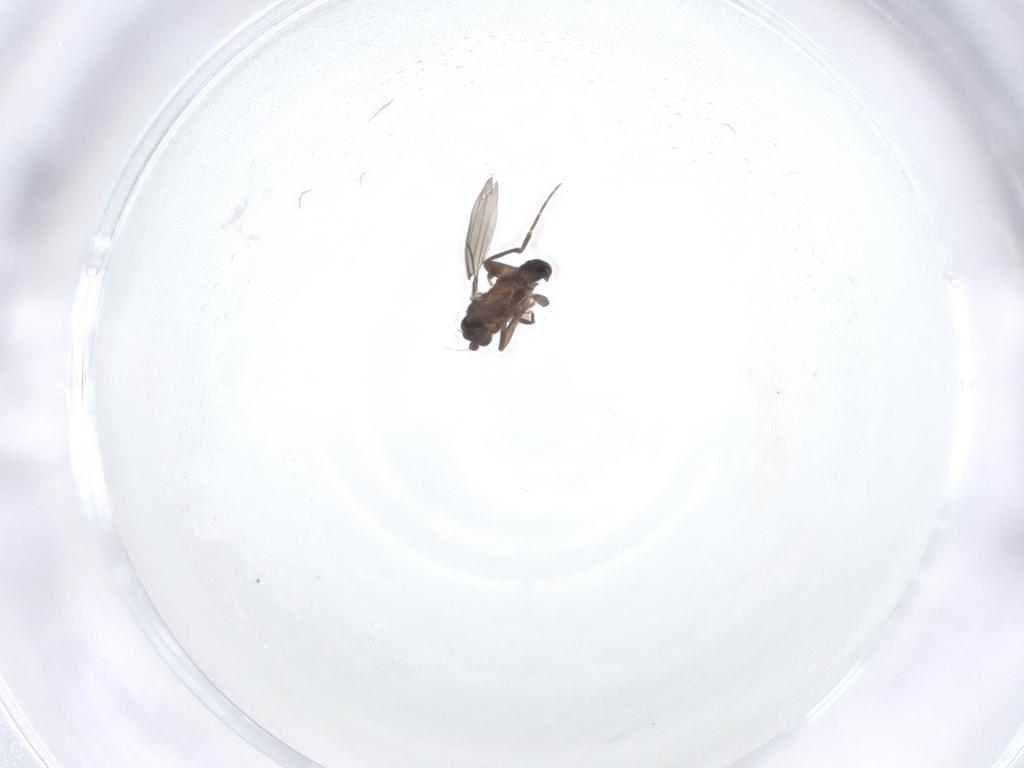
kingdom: Animalia
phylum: Arthropoda
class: Insecta
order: Diptera
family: Phoridae
